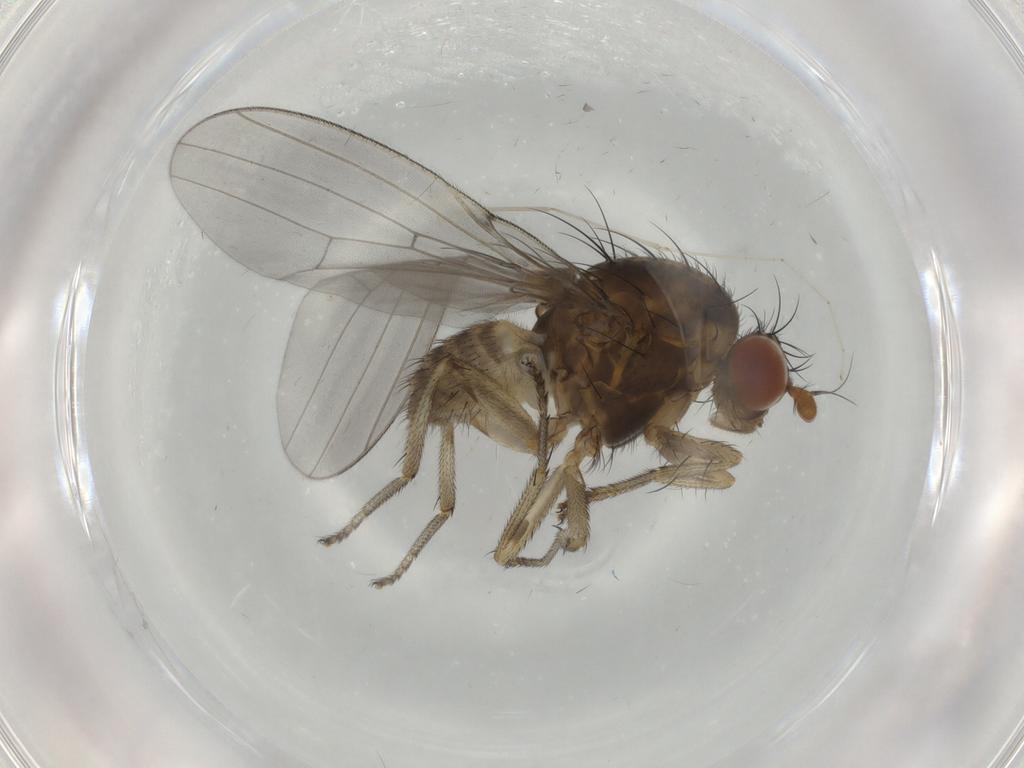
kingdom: Animalia
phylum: Arthropoda
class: Insecta
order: Diptera
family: Lauxaniidae
